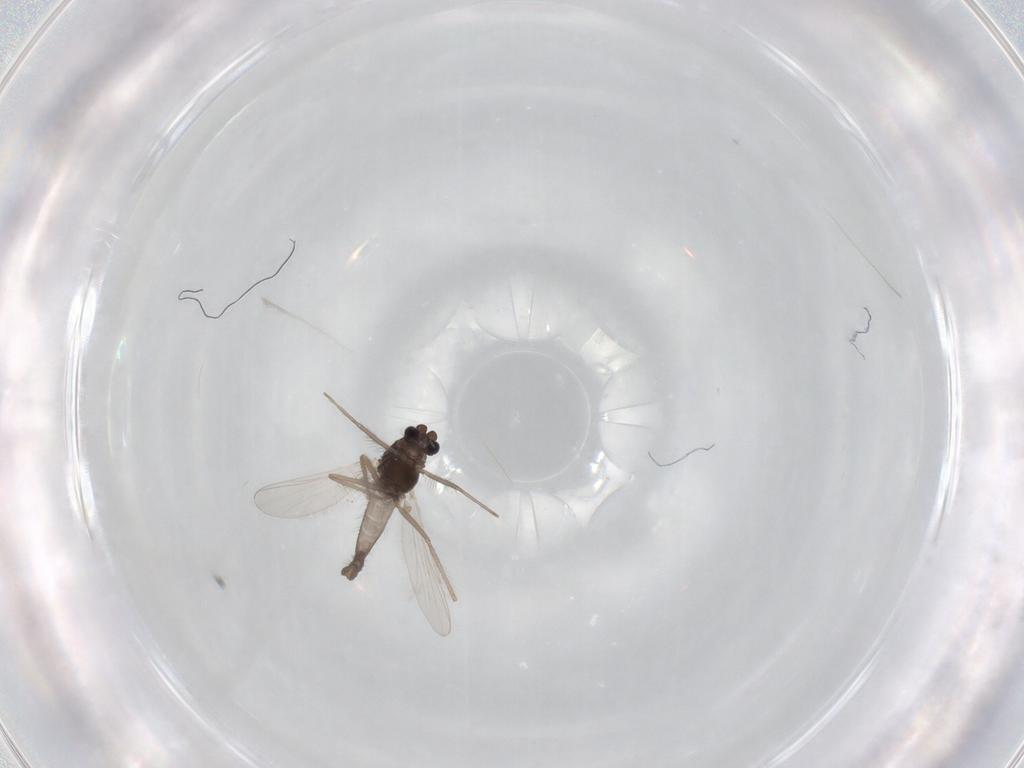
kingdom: Animalia
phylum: Arthropoda
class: Insecta
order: Diptera
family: Chironomidae
